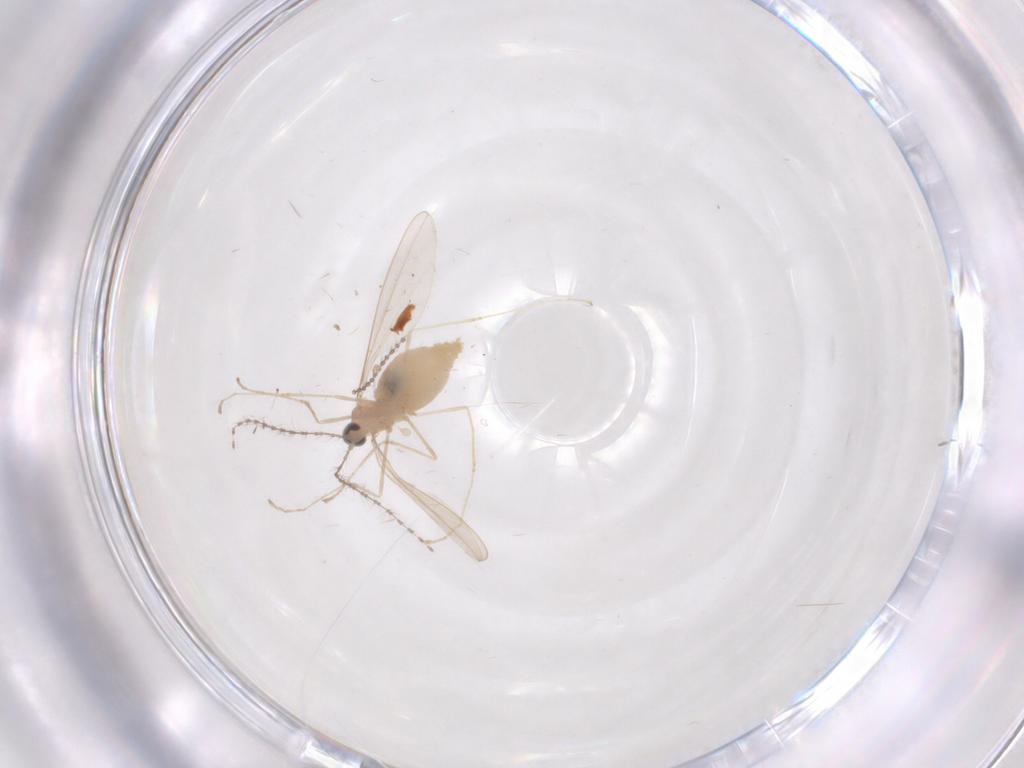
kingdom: Animalia
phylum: Arthropoda
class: Insecta
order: Diptera
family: Cecidomyiidae
